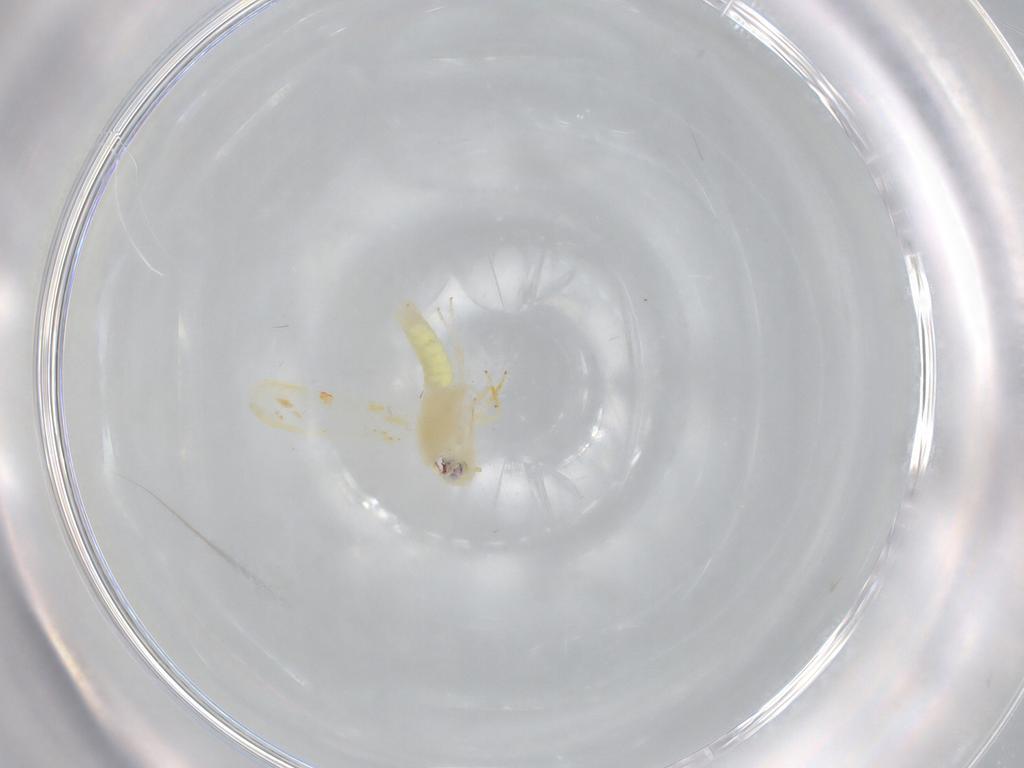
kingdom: Animalia
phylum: Arthropoda
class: Insecta
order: Hemiptera
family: Cicadellidae
